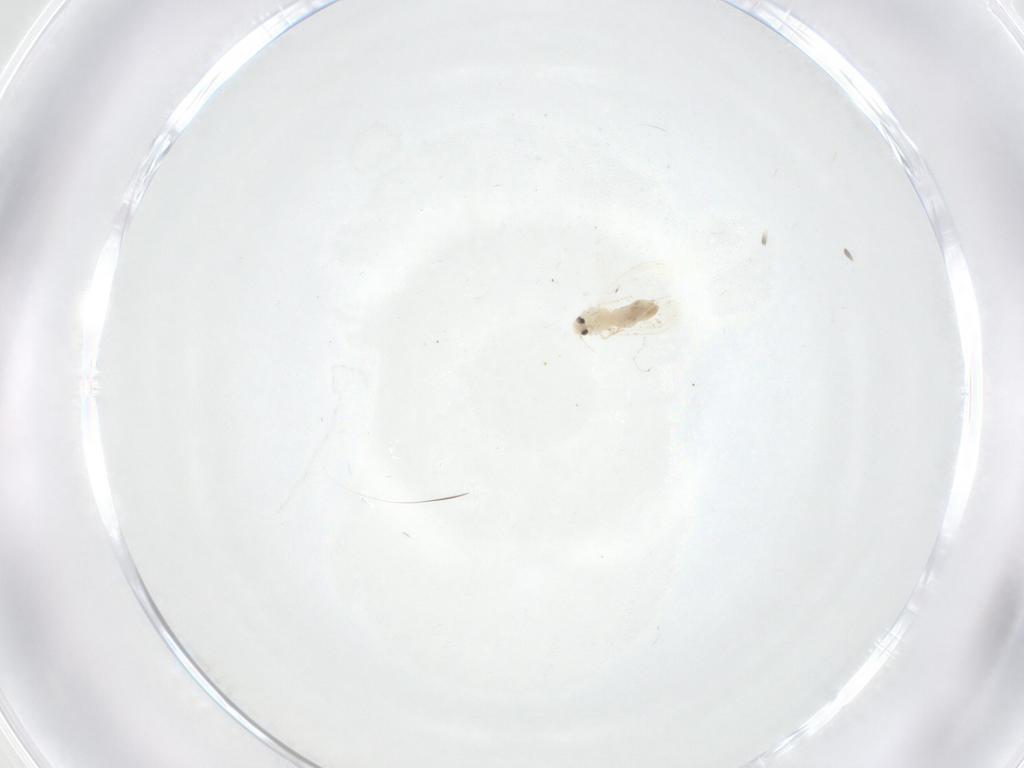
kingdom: Animalia
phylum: Arthropoda
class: Insecta
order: Hemiptera
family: Aleyrodidae
